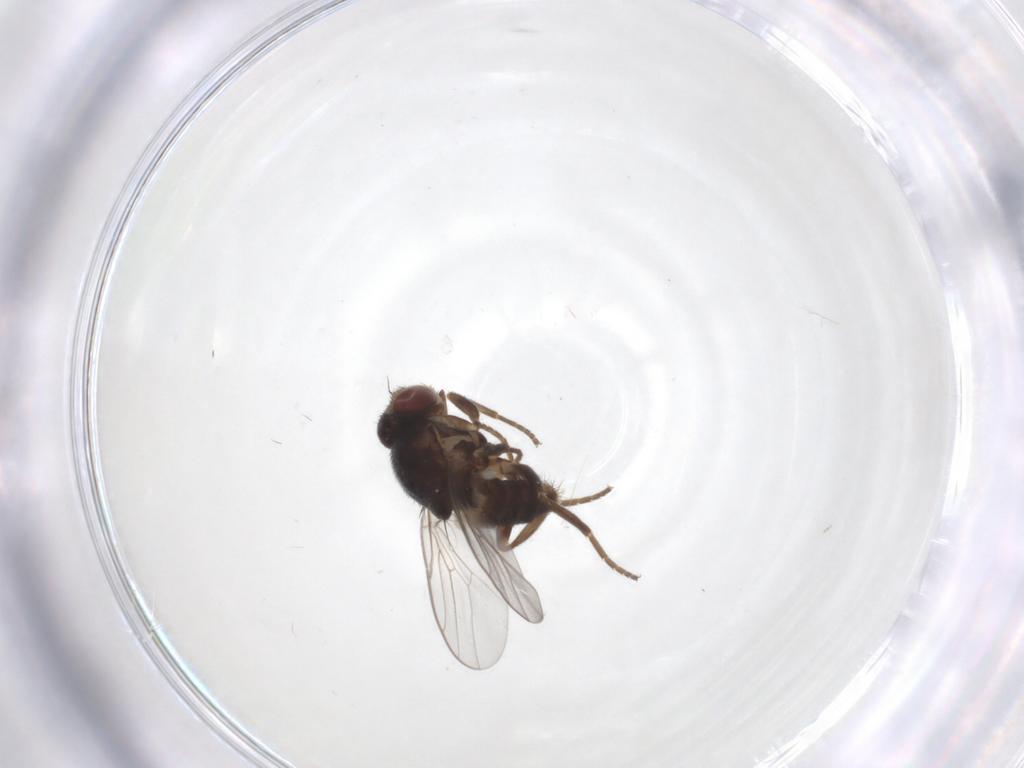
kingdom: Animalia
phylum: Arthropoda
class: Insecta
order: Diptera
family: Chloropidae
